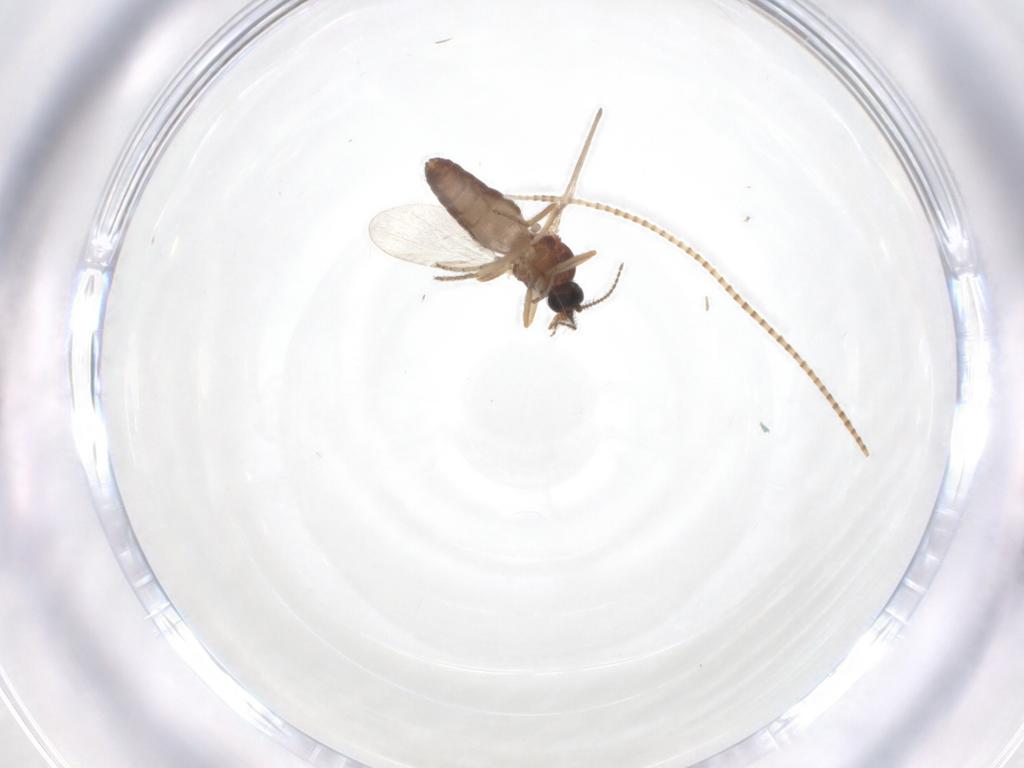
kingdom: Animalia
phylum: Arthropoda
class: Insecta
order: Diptera
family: Ceratopogonidae
